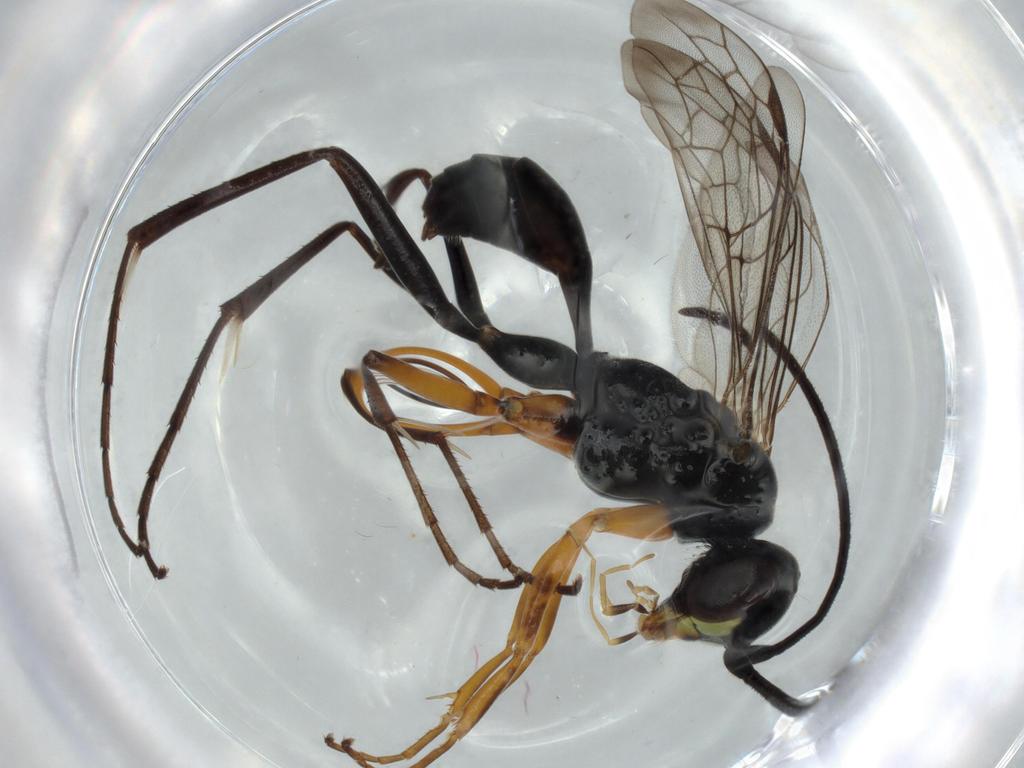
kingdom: Animalia
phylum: Arthropoda
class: Insecta
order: Hymenoptera
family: Pompilidae
